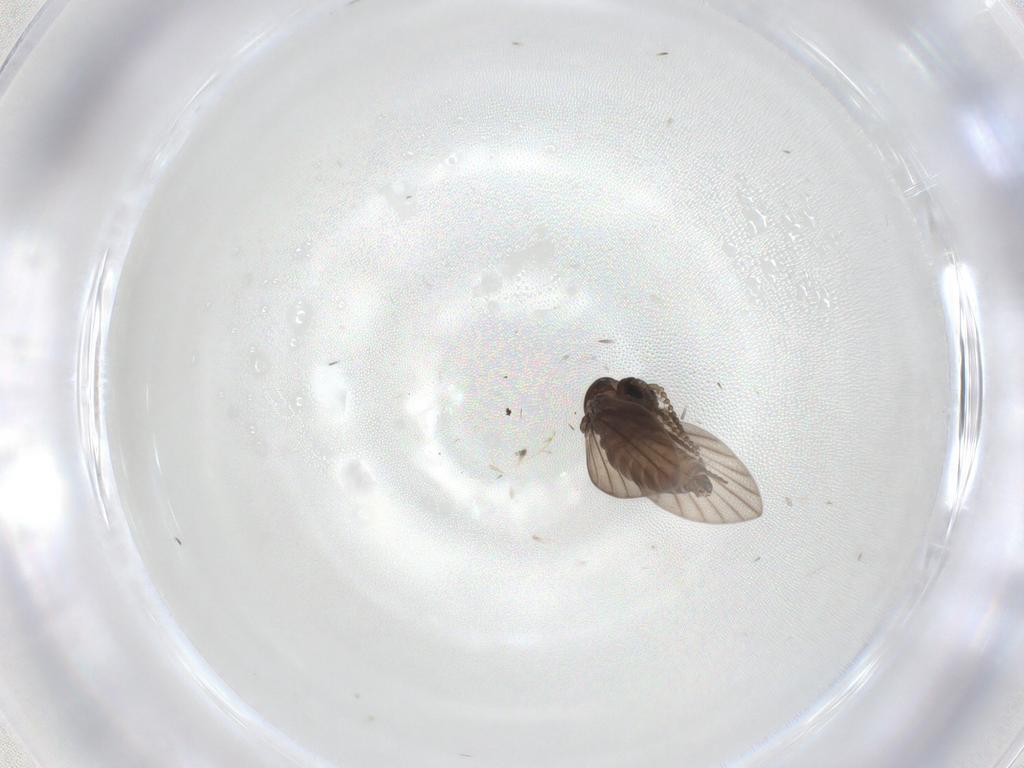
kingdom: Animalia
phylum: Arthropoda
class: Insecta
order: Diptera
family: Psychodidae
